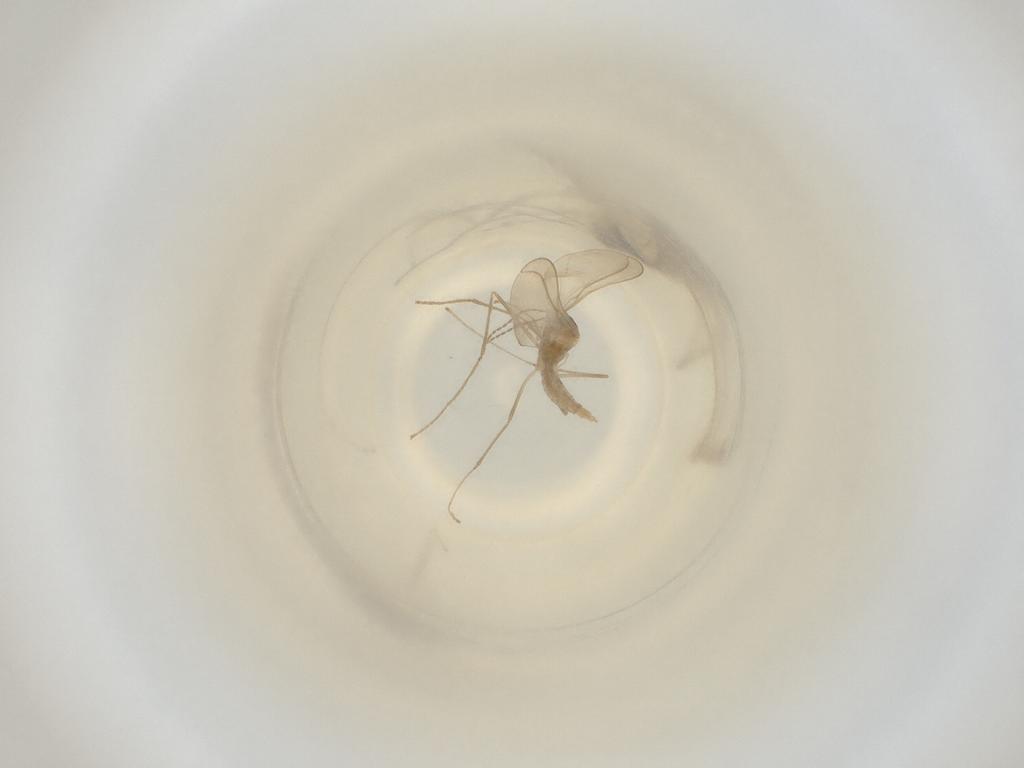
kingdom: Animalia
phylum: Arthropoda
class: Insecta
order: Diptera
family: Cecidomyiidae
